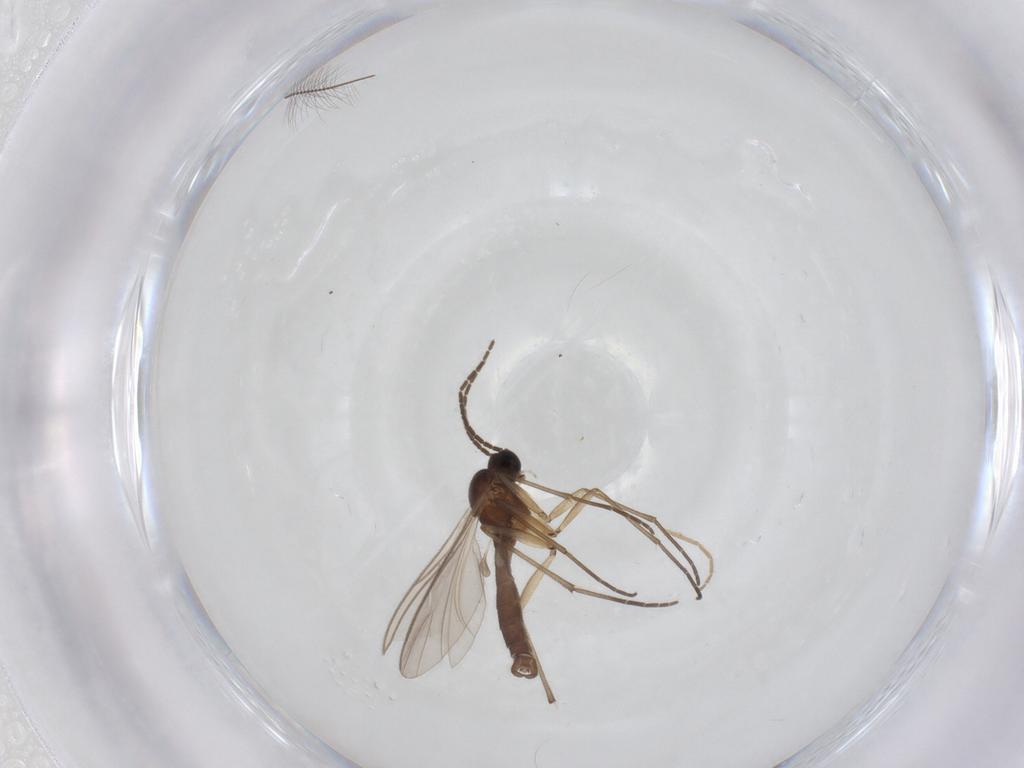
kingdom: Animalia
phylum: Arthropoda
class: Insecta
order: Diptera
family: Sciaridae
